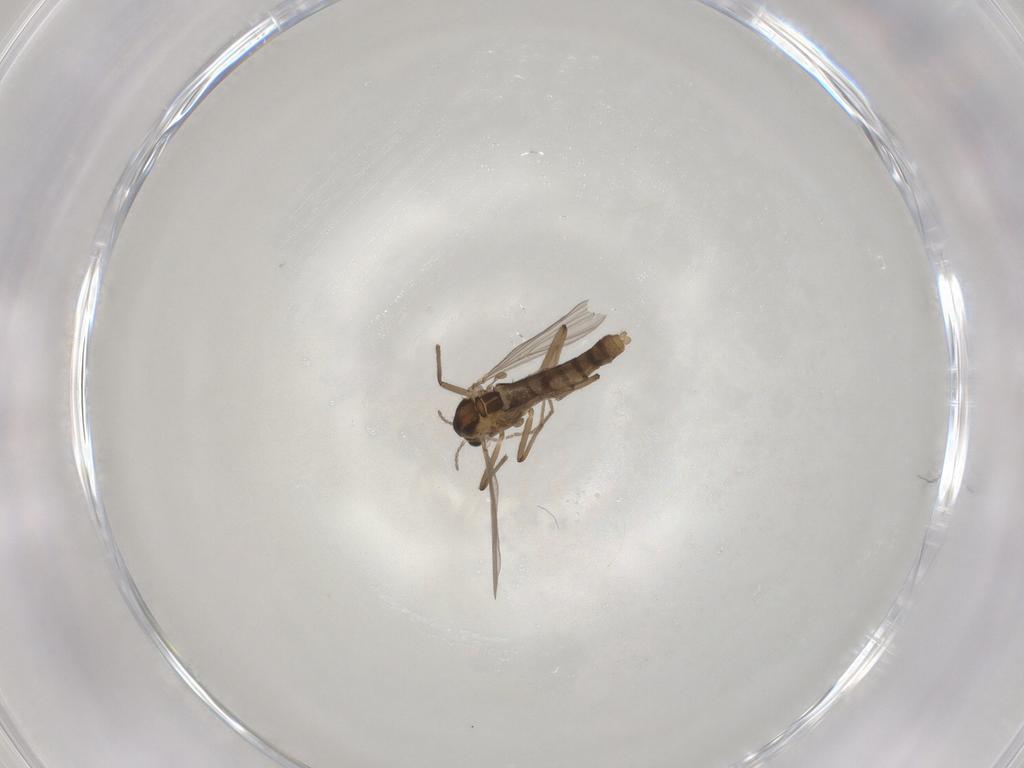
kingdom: Animalia
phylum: Arthropoda
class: Insecta
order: Diptera
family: Chironomidae
